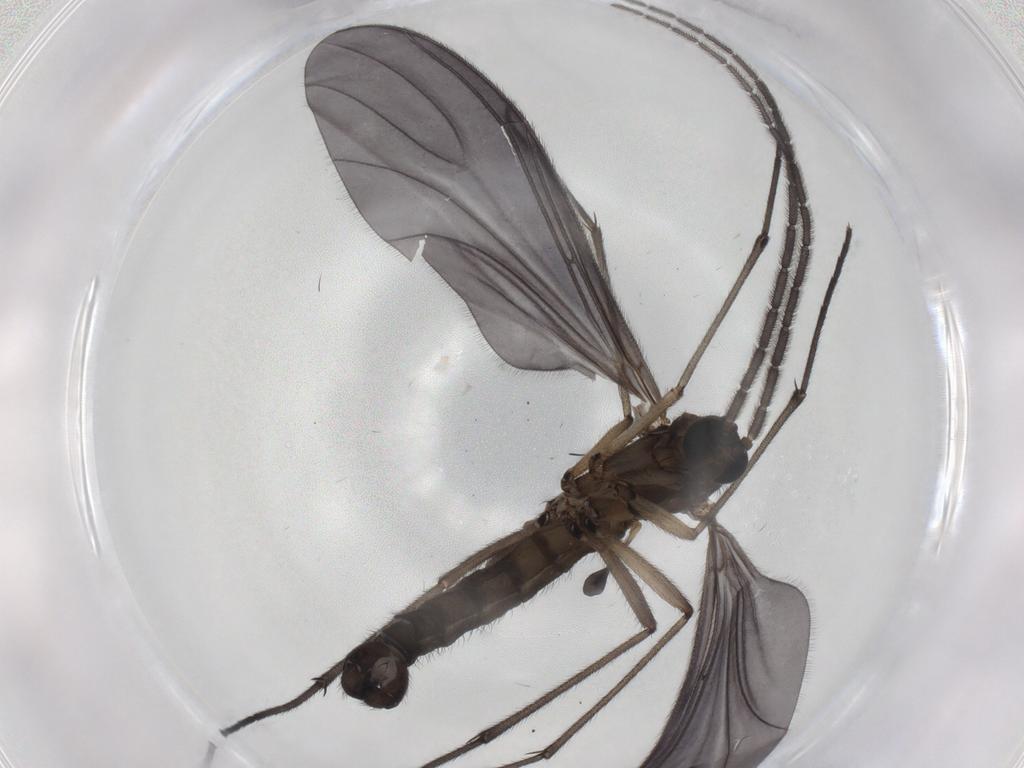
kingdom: Animalia
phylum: Arthropoda
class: Insecta
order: Diptera
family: Sciaridae
